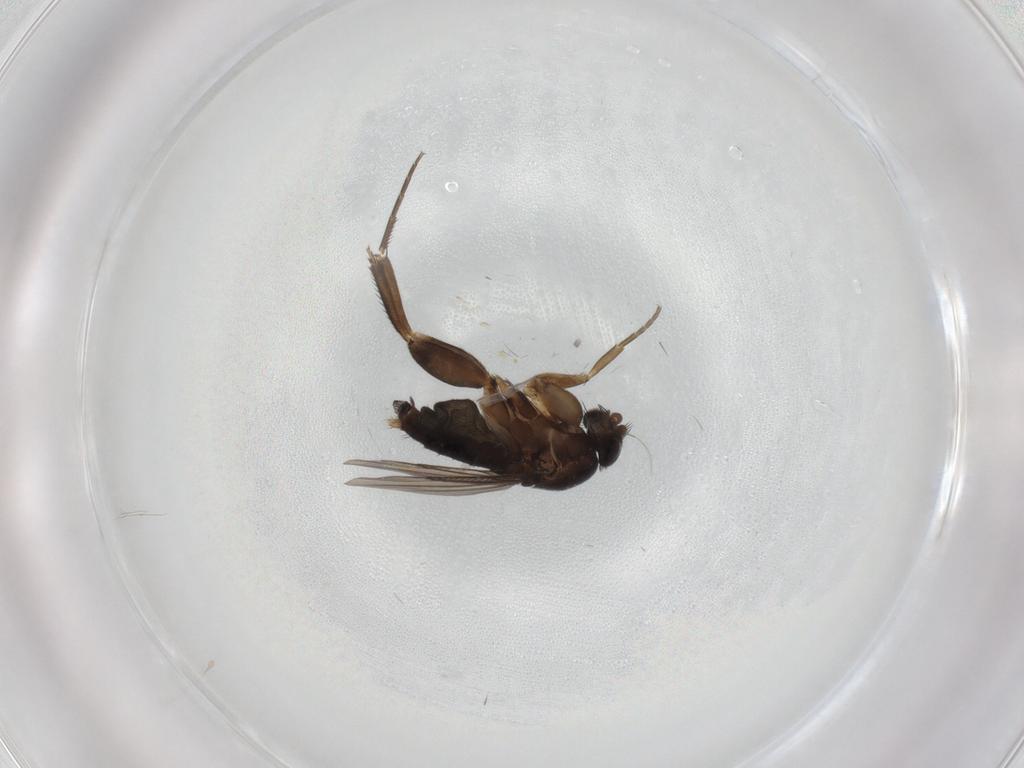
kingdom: Animalia
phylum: Arthropoda
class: Insecta
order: Diptera
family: Phoridae
